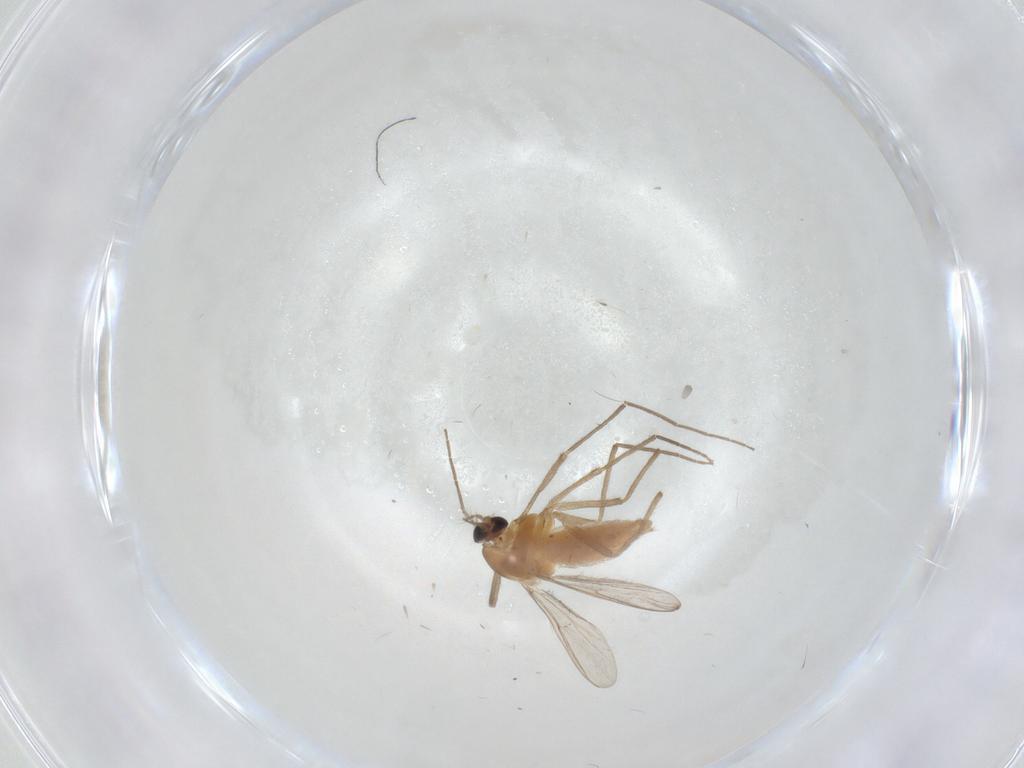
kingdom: Animalia
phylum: Arthropoda
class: Insecta
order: Diptera
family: Chironomidae
